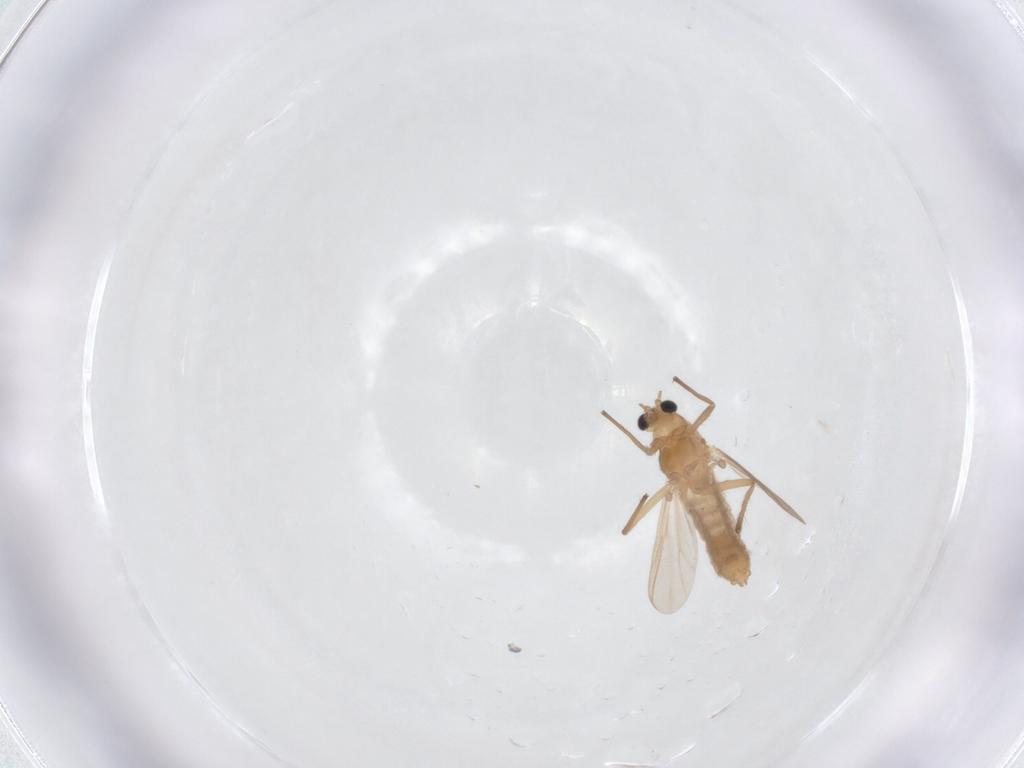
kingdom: Animalia
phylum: Arthropoda
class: Insecta
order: Diptera
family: Chironomidae
